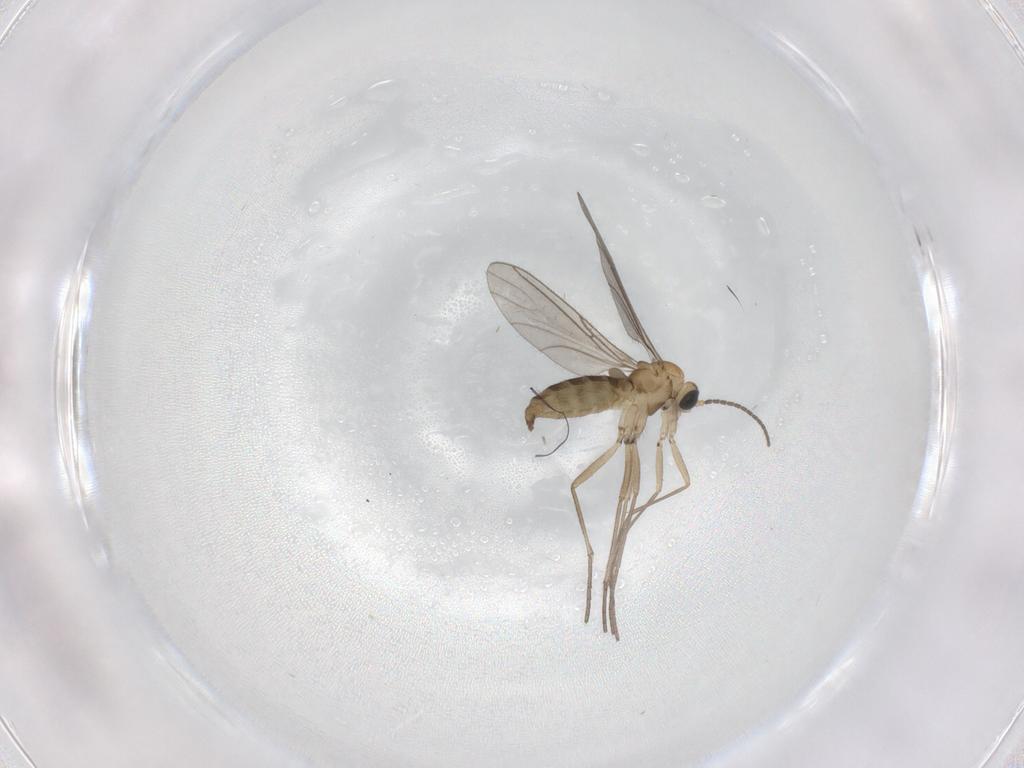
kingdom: Animalia
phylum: Arthropoda
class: Insecta
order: Diptera
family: Sciaridae
